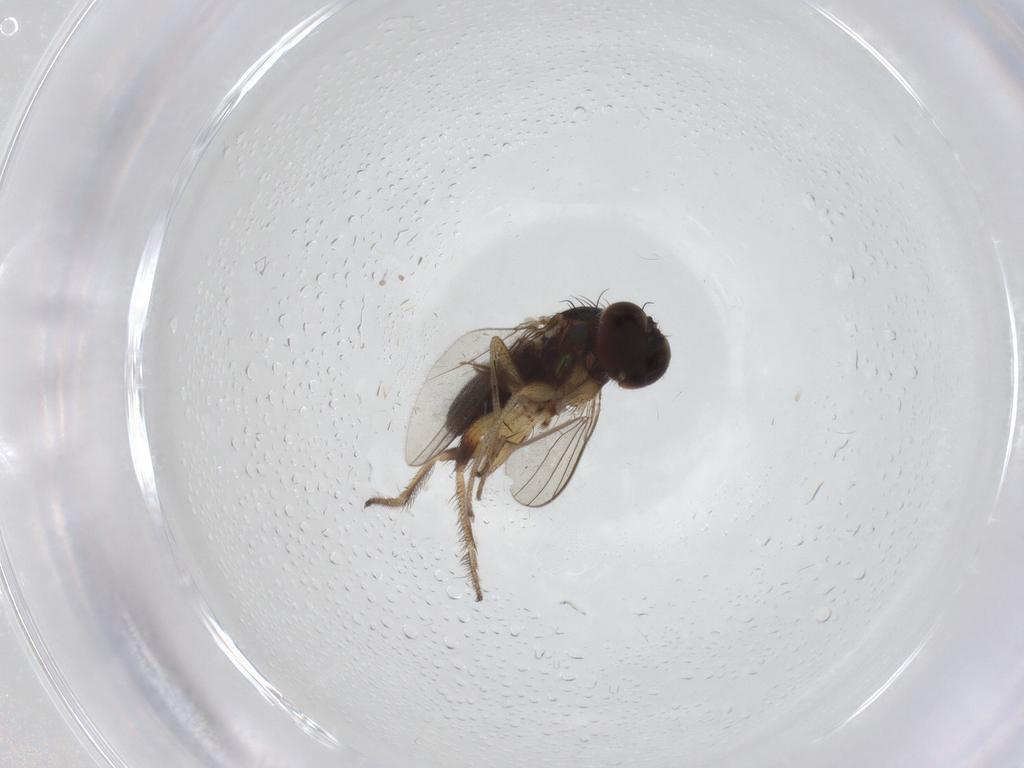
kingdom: Animalia
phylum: Arthropoda
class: Insecta
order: Diptera
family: Ceratopogonidae
